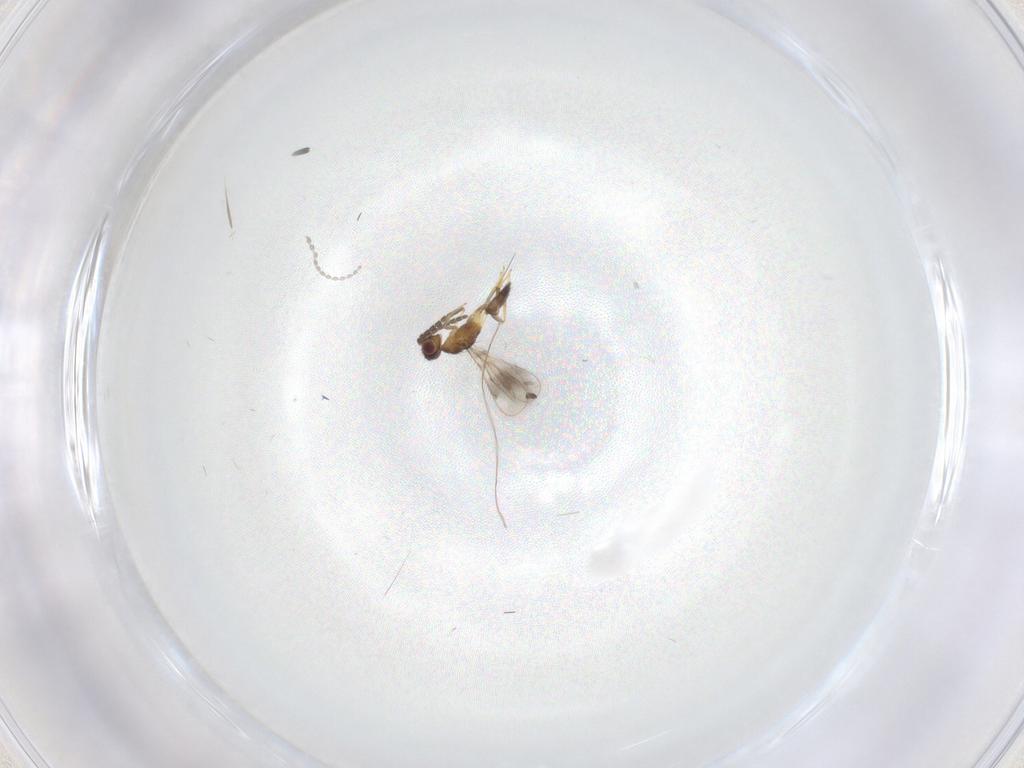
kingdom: Animalia
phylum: Arthropoda
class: Insecta
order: Hymenoptera
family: Pteromalidae
